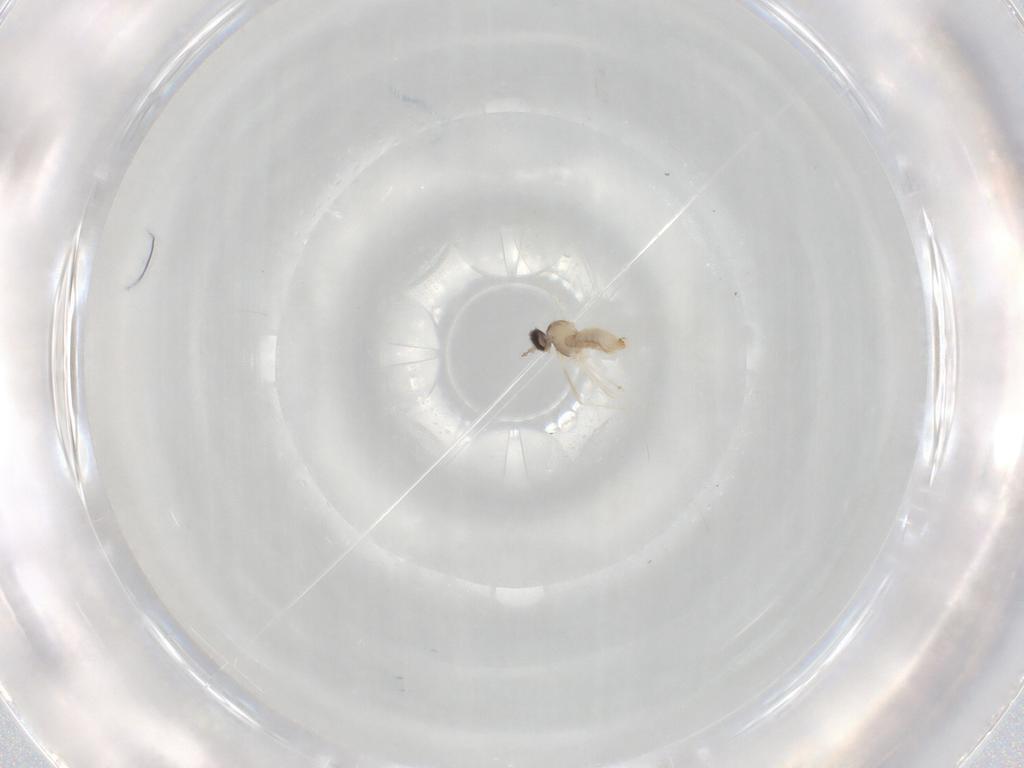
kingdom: Animalia
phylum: Arthropoda
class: Insecta
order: Diptera
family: Cecidomyiidae
